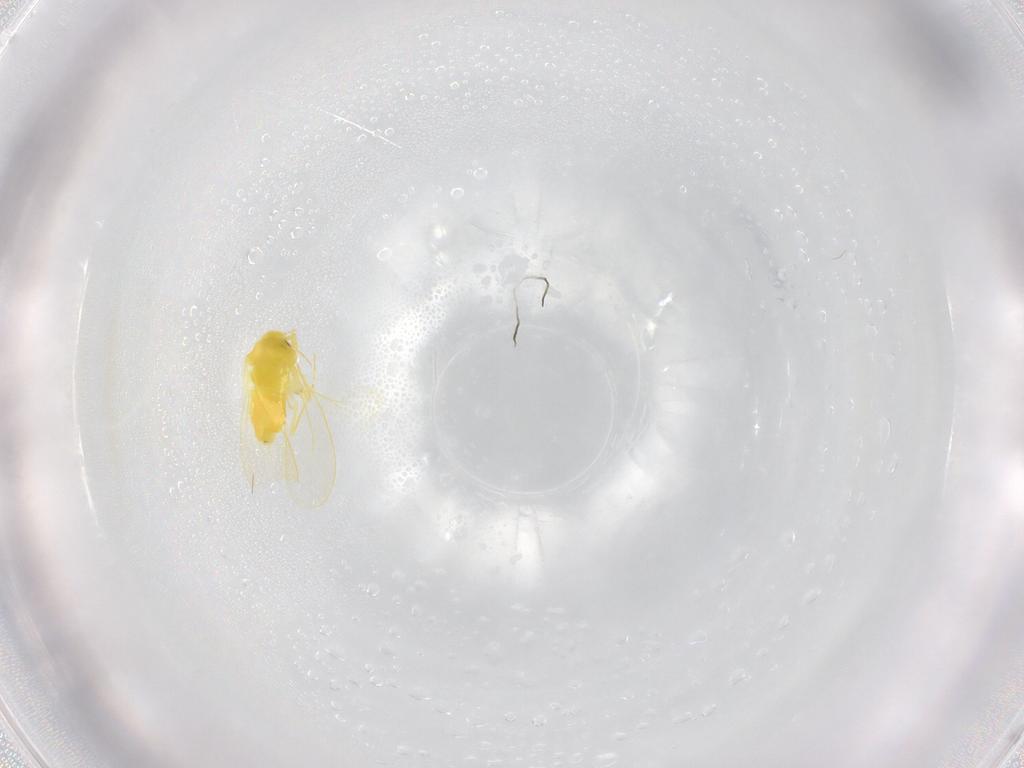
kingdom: Animalia
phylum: Arthropoda
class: Insecta
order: Hemiptera
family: Aleyrodidae
